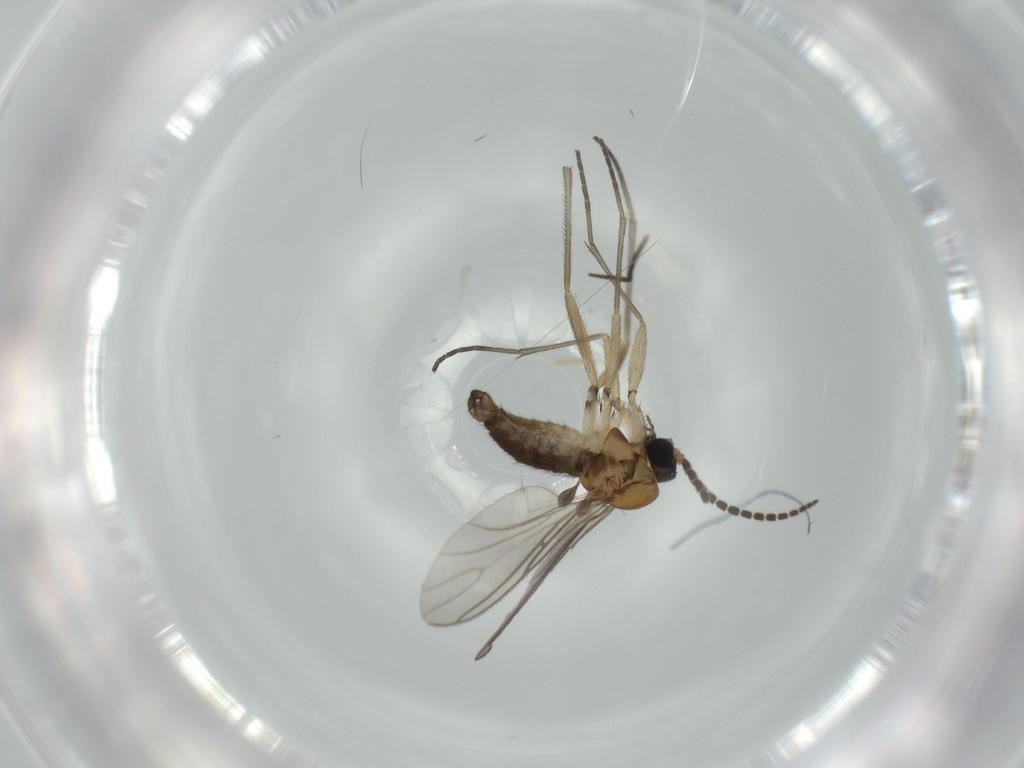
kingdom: Animalia
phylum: Arthropoda
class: Insecta
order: Diptera
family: Sciaridae
